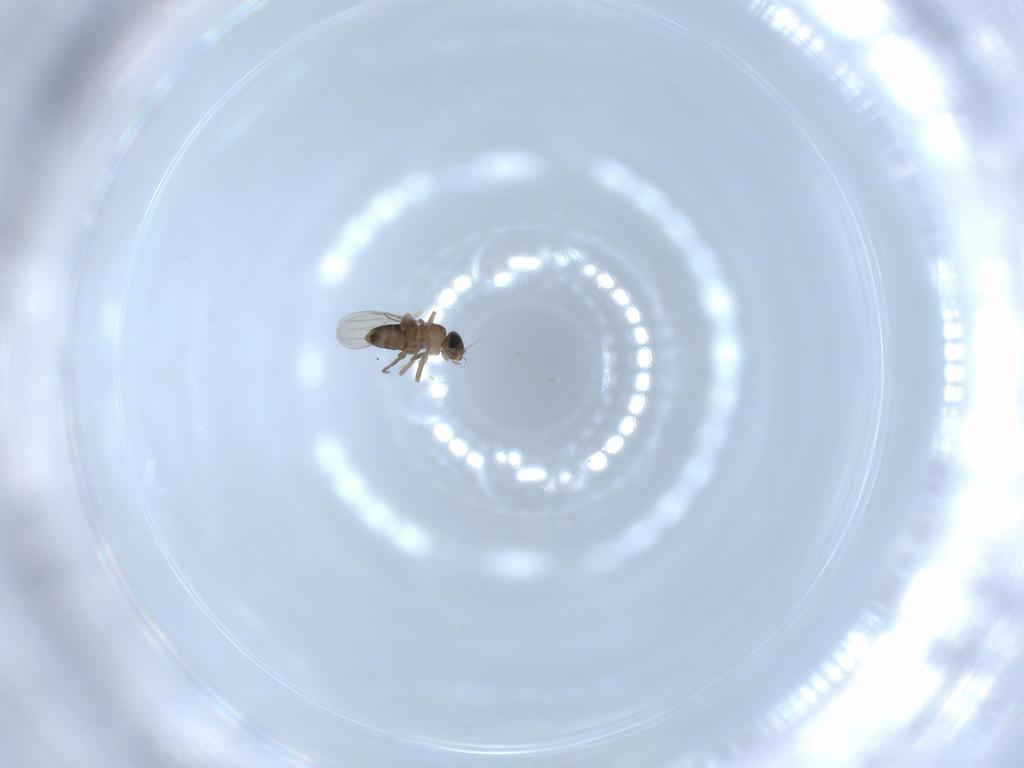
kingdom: Animalia
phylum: Arthropoda
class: Insecta
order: Diptera
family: Phoridae
